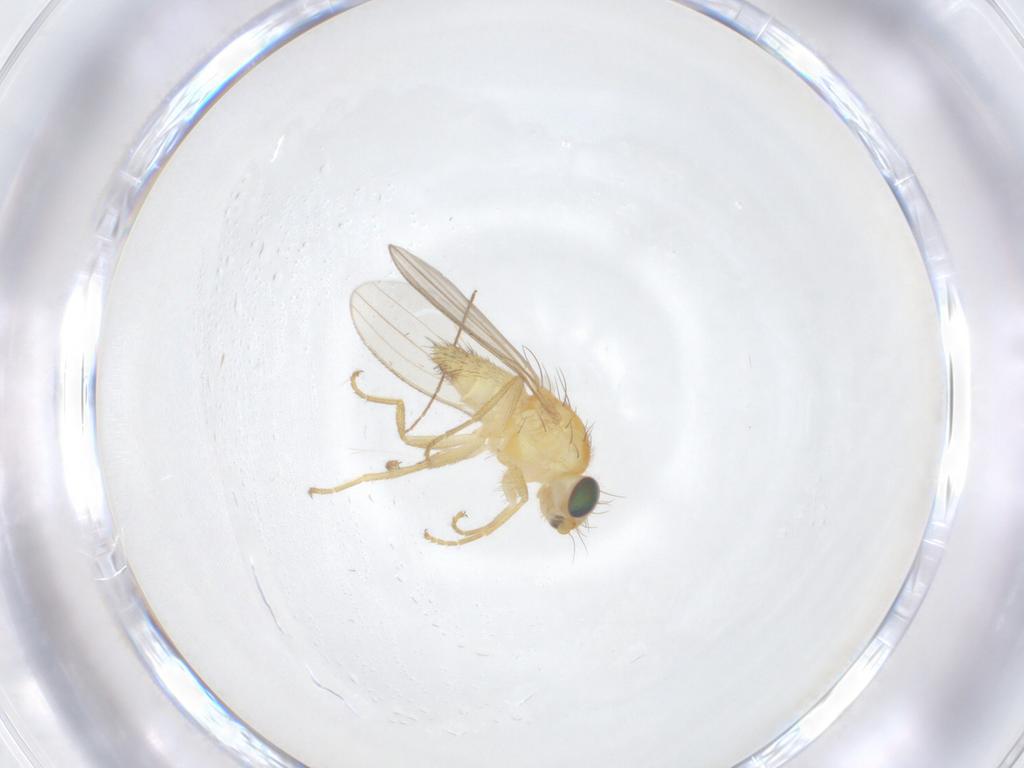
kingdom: Animalia
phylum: Arthropoda
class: Insecta
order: Diptera
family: Chyromyidae
